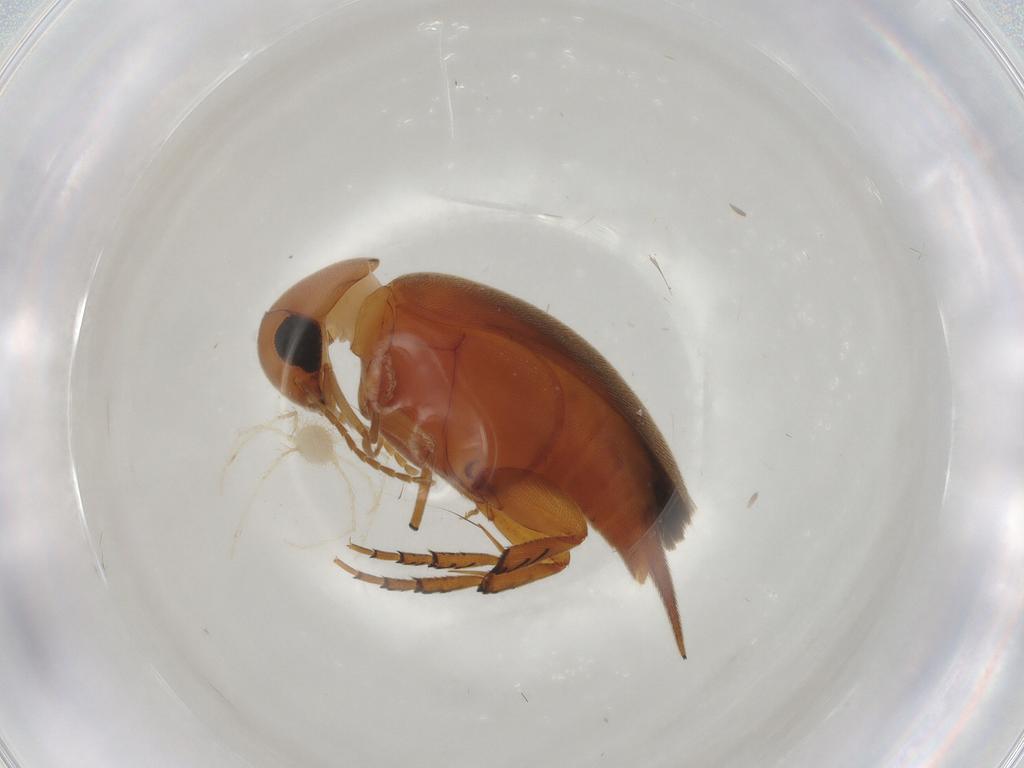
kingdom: Animalia
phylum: Arthropoda
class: Insecta
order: Coleoptera
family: Mordellidae
